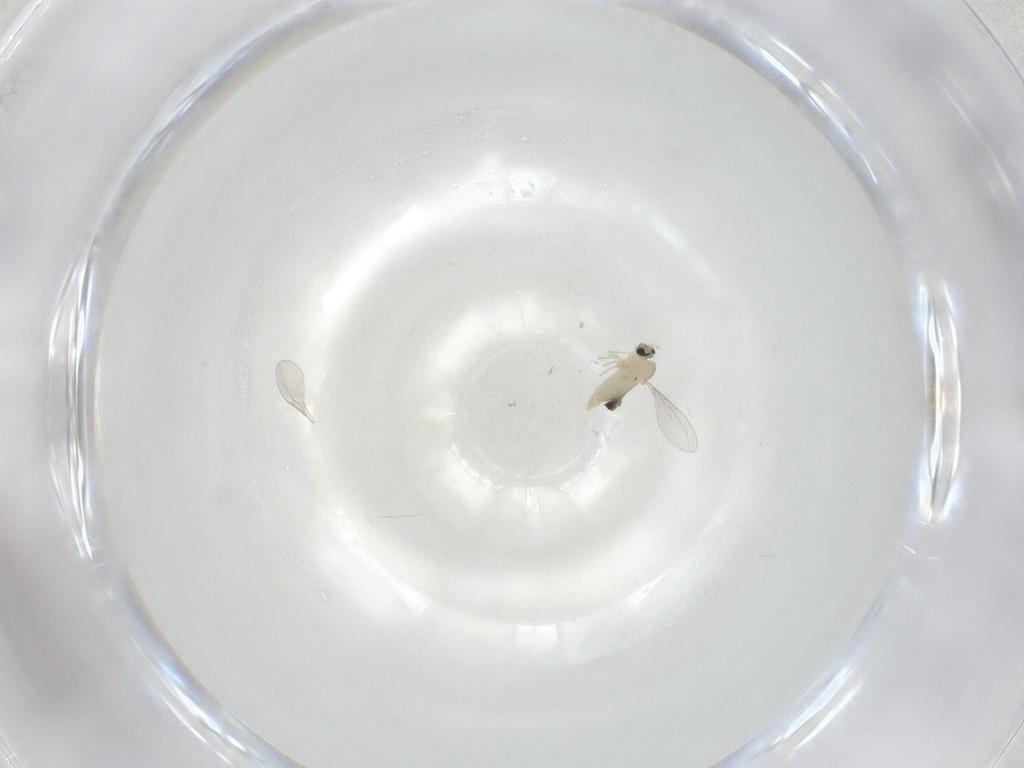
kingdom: Animalia
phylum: Arthropoda
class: Insecta
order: Diptera
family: Cecidomyiidae
